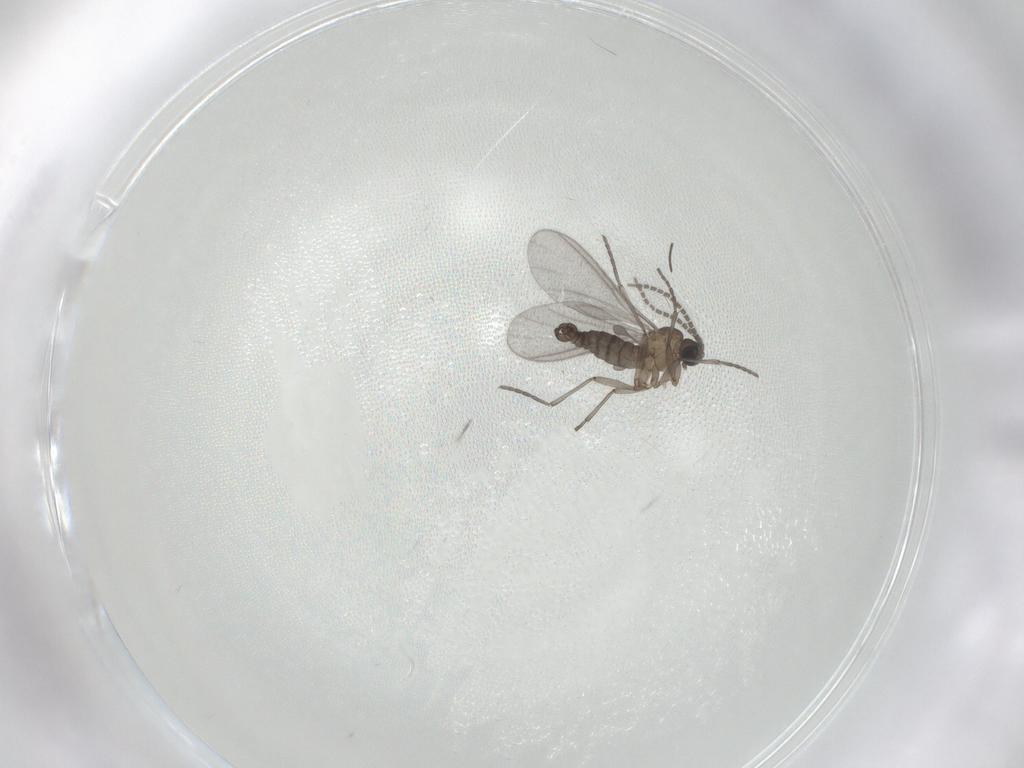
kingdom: Animalia
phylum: Arthropoda
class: Insecta
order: Diptera
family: Sciaridae
